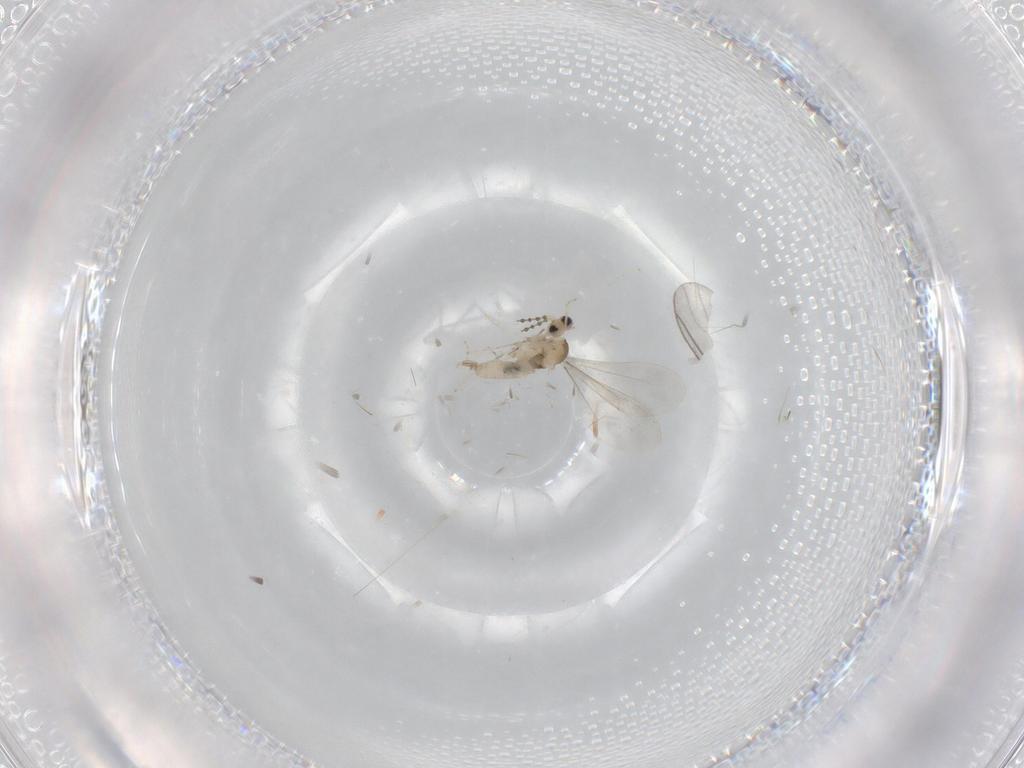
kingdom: Animalia
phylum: Arthropoda
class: Insecta
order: Diptera
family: Cecidomyiidae
